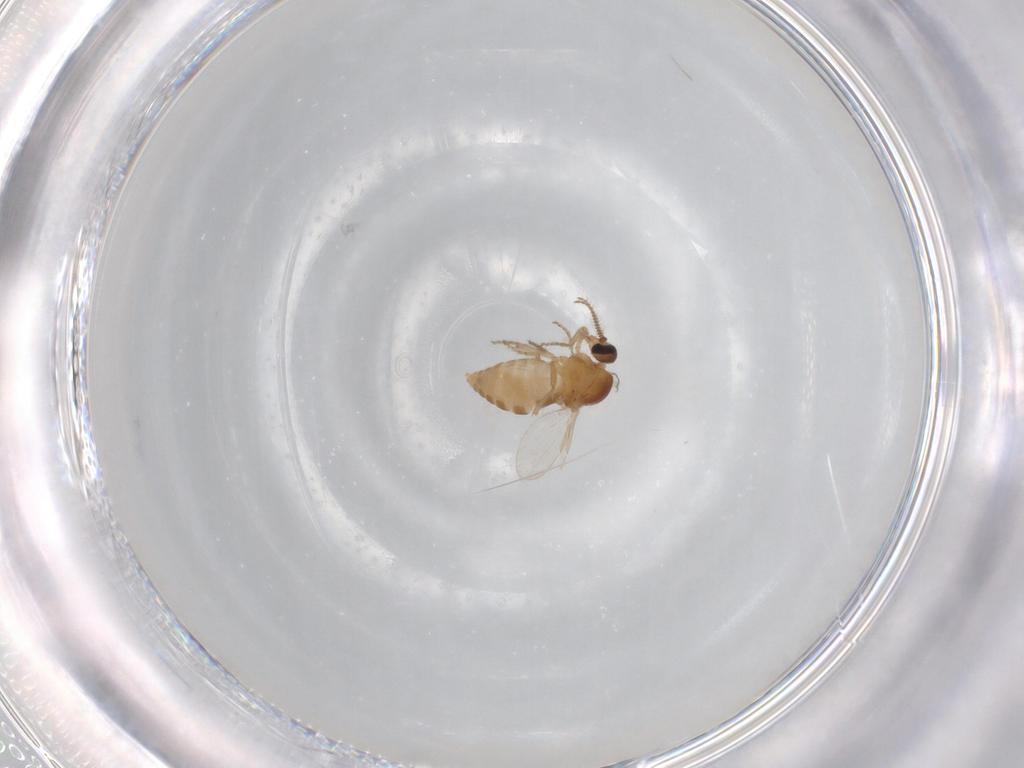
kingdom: Animalia
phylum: Arthropoda
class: Insecta
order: Diptera
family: Ceratopogonidae
